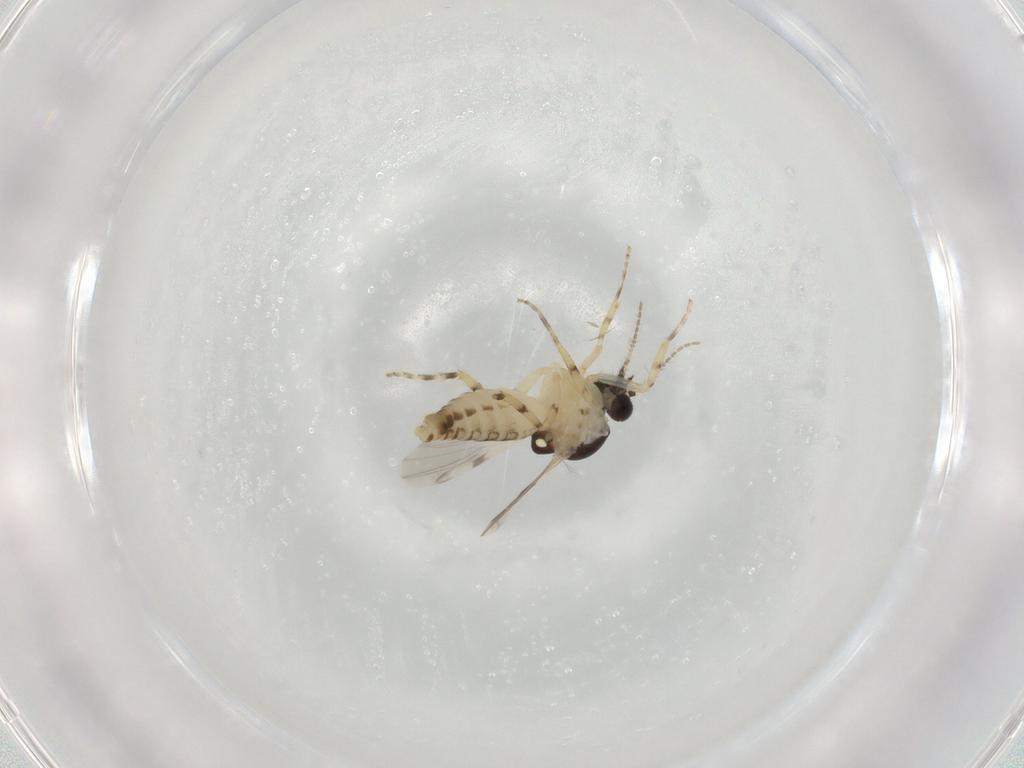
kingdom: Animalia
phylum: Arthropoda
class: Insecta
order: Diptera
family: Ceratopogonidae
